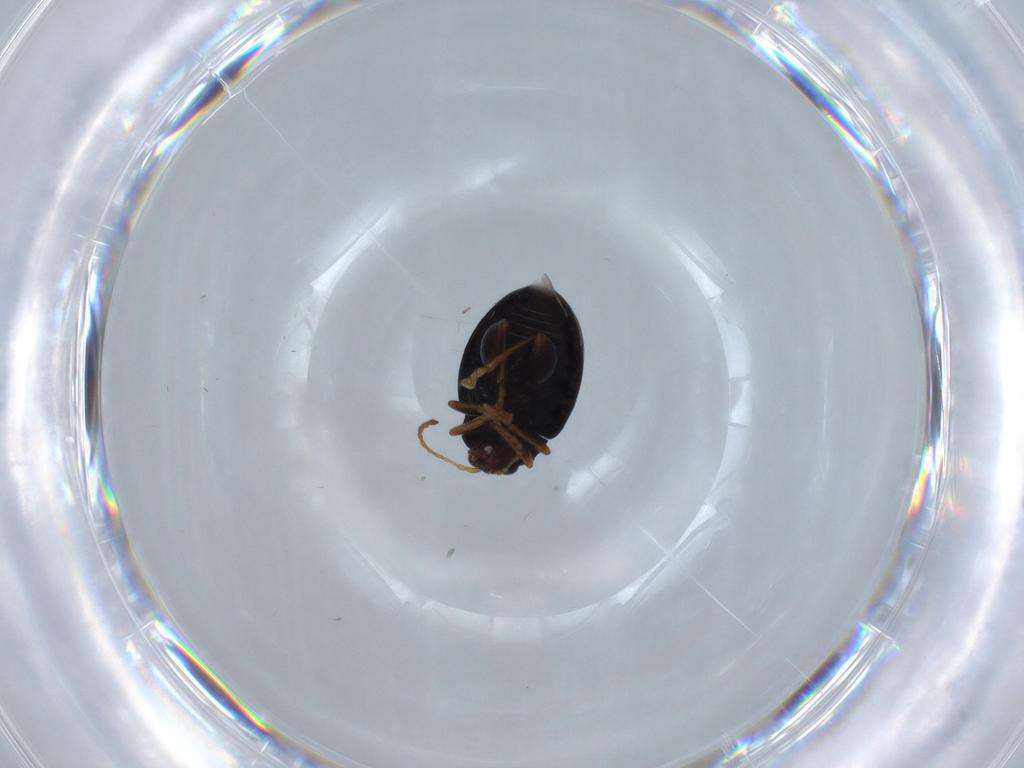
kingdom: Animalia
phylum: Arthropoda
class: Insecta
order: Coleoptera
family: Chrysomelidae
